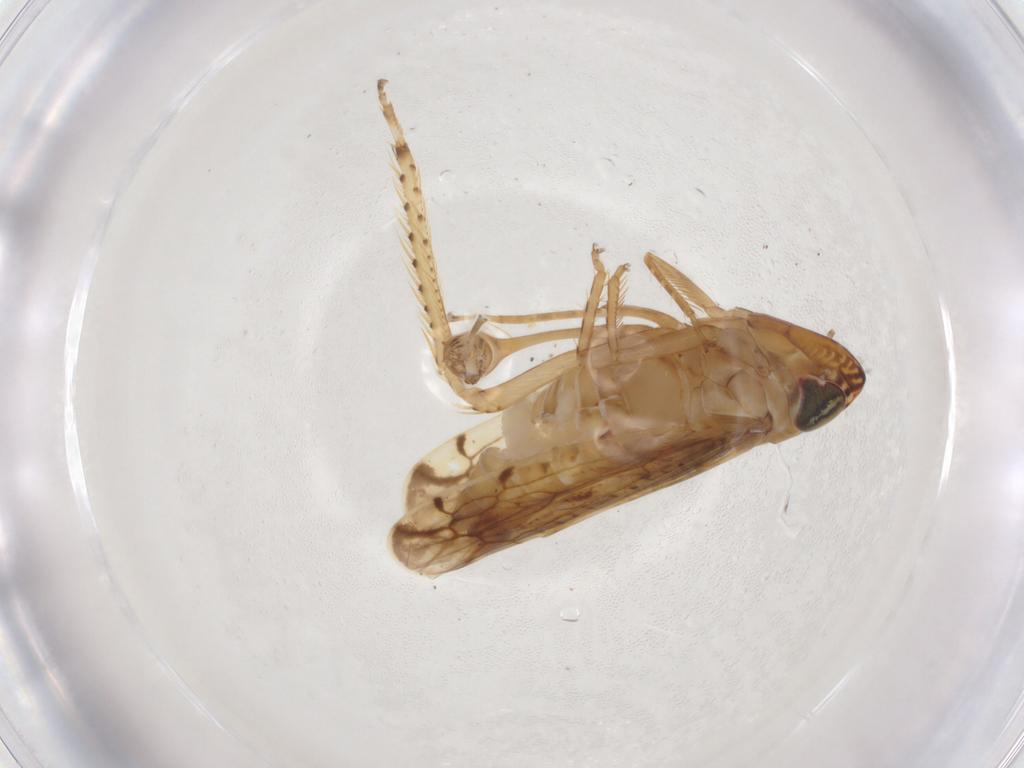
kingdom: Animalia
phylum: Arthropoda
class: Insecta
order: Hemiptera
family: Cicadellidae
